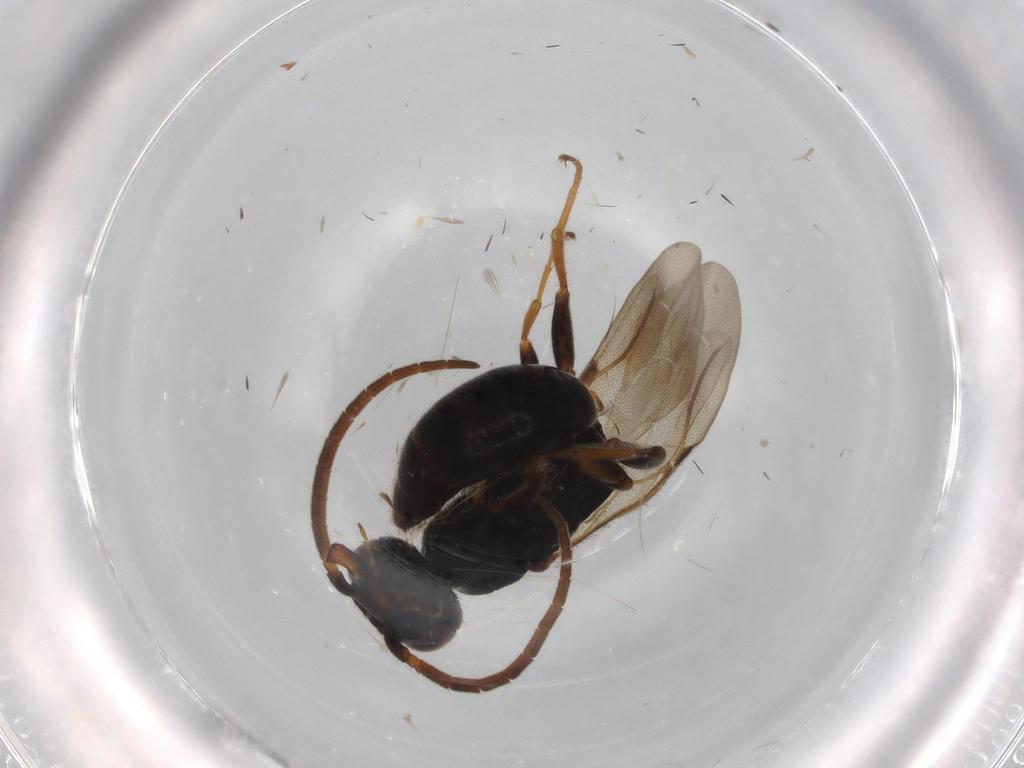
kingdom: Animalia
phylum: Arthropoda
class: Insecta
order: Hymenoptera
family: Bethylidae
